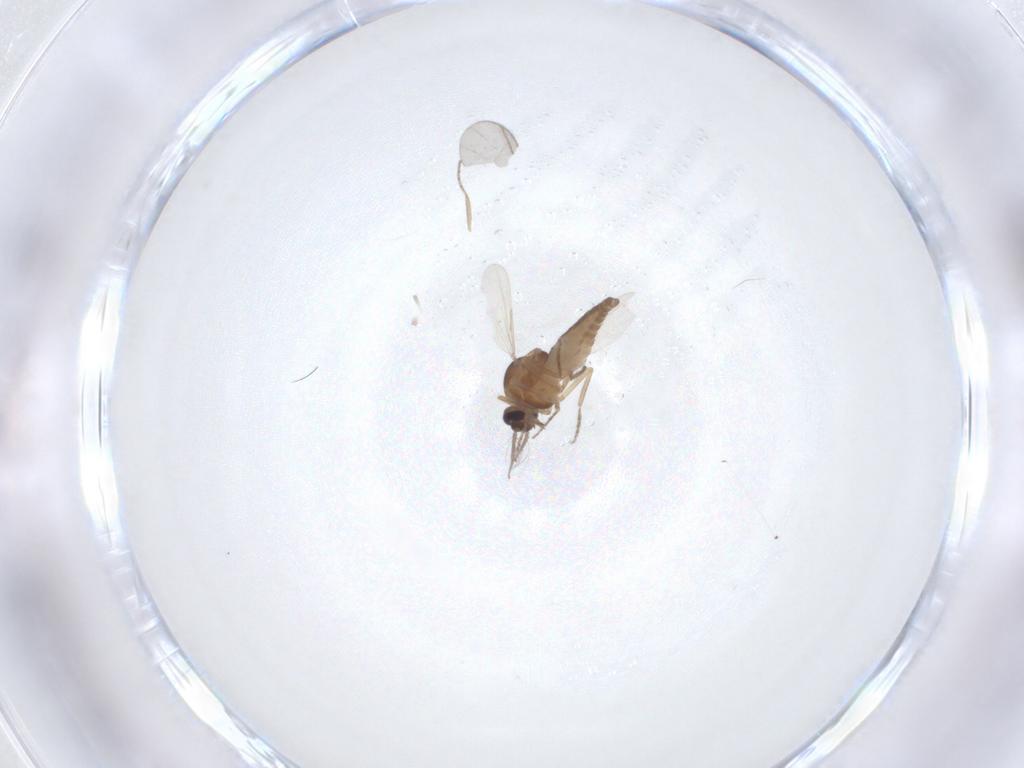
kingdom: Animalia
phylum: Arthropoda
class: Insecta
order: Diptera
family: Ceratopogonidae
